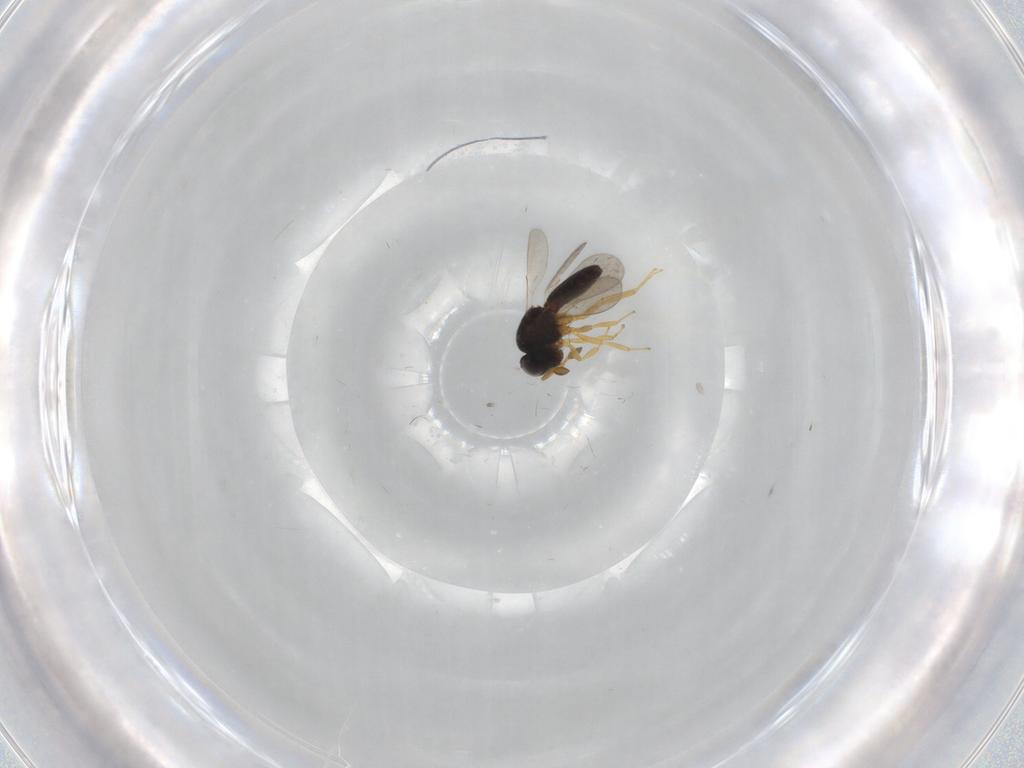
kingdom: Animalia
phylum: Arthropoda
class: Insecta
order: Hymenoptera
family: Scelionidae
